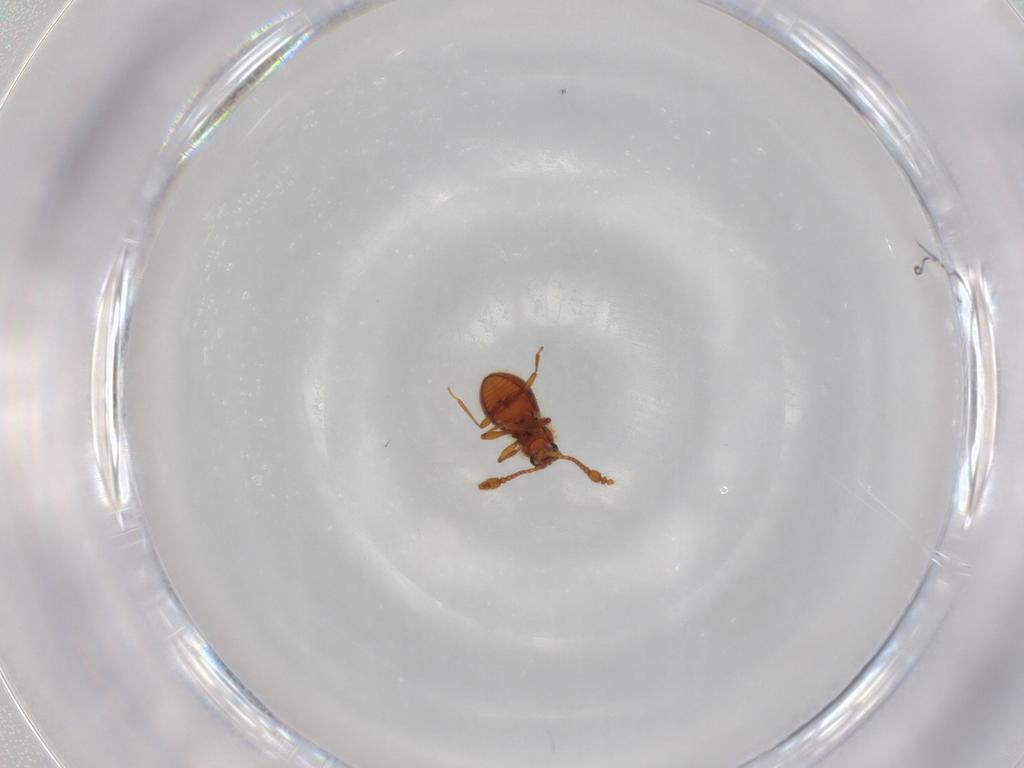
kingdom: Animalia
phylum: Arthropoda
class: Insecta
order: Coleoptera
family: Staphylinidae
